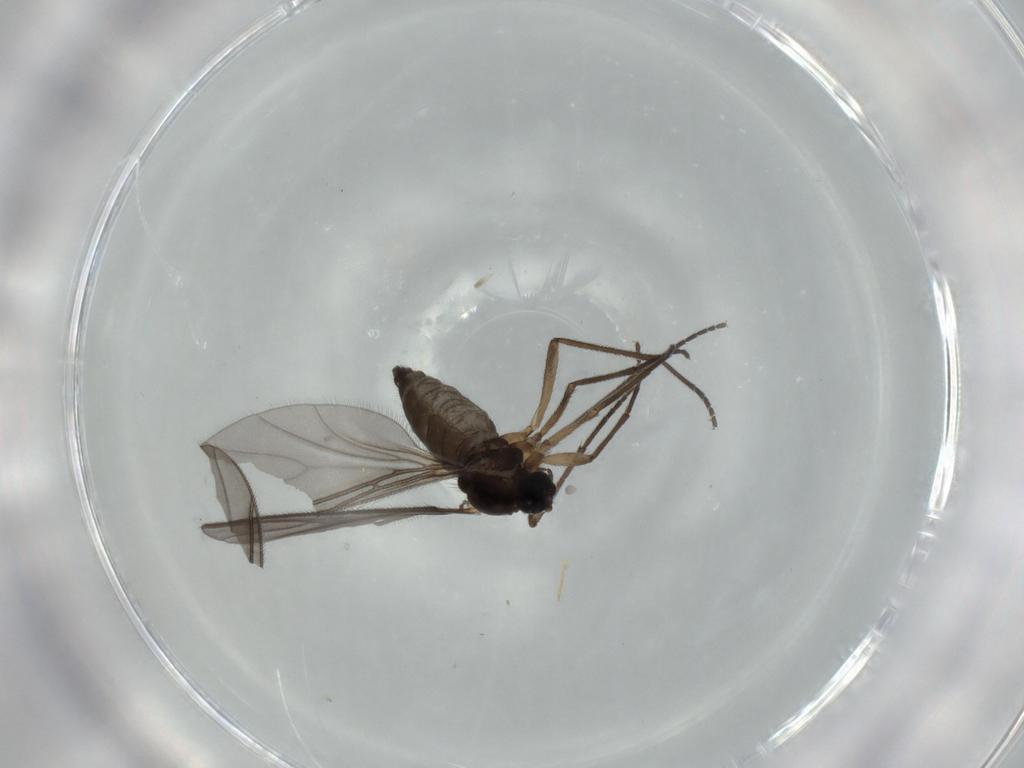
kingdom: Animalia
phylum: Arthropoda
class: Insecta
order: Diptera
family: Sciaridae
